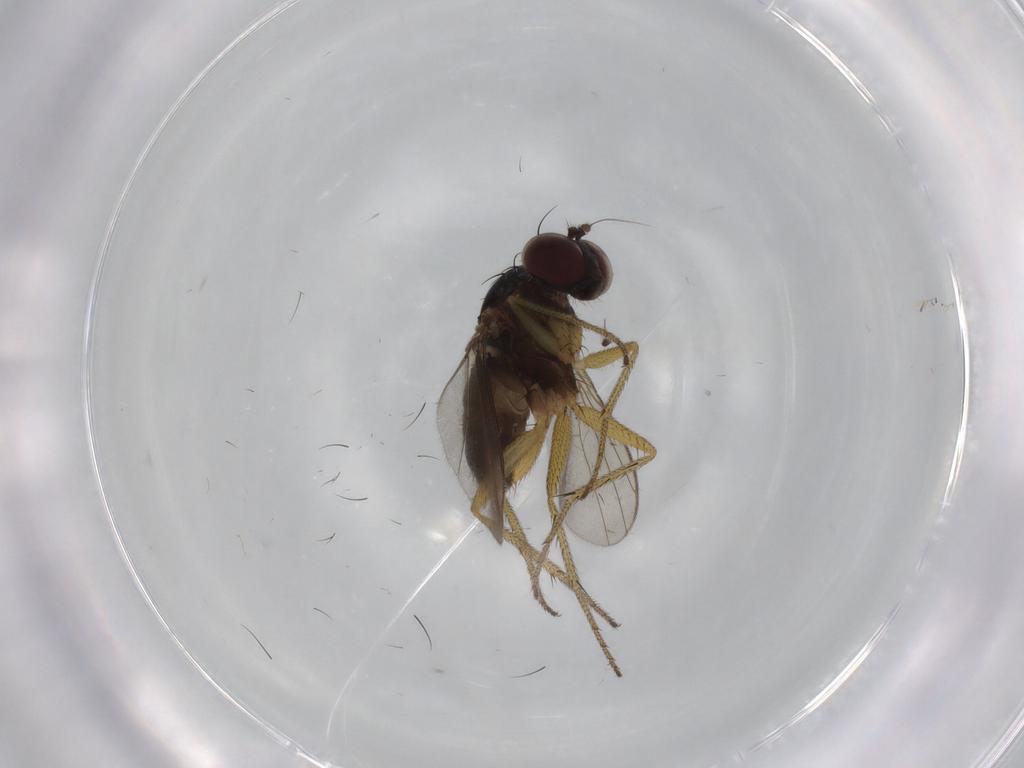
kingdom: Animalia
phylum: Arthropoda
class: Insecta
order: Diptera
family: Dolichopodidae
